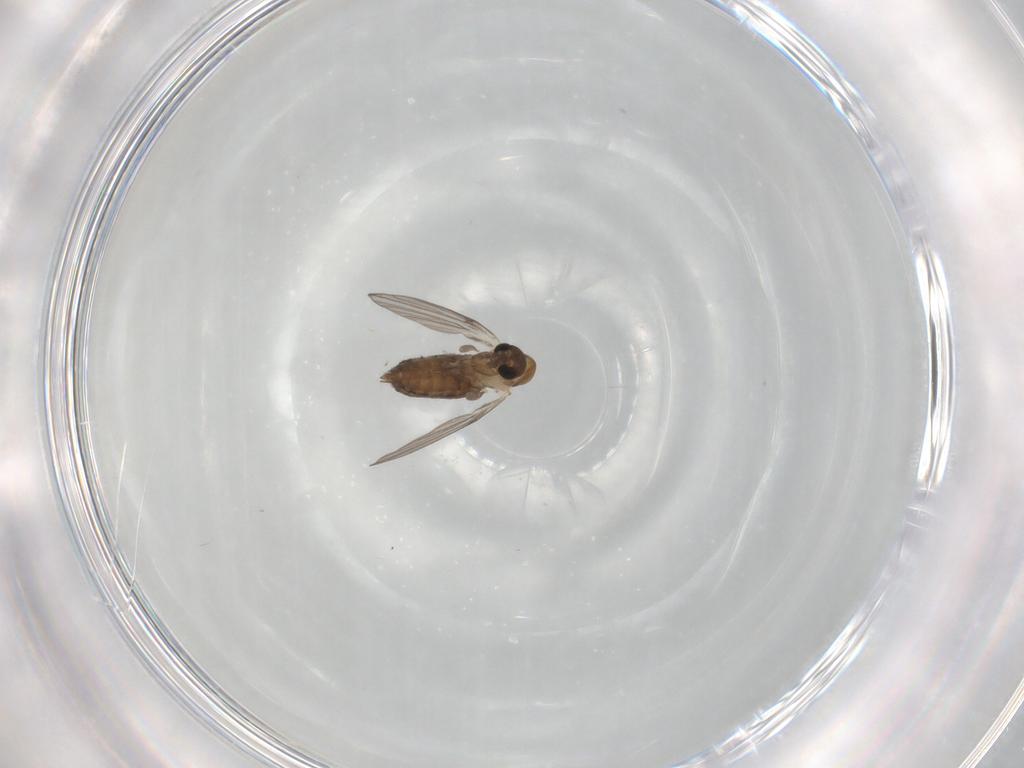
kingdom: Animalia
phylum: Arthropoda
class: Insecta
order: Diptera
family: Psychodidae
